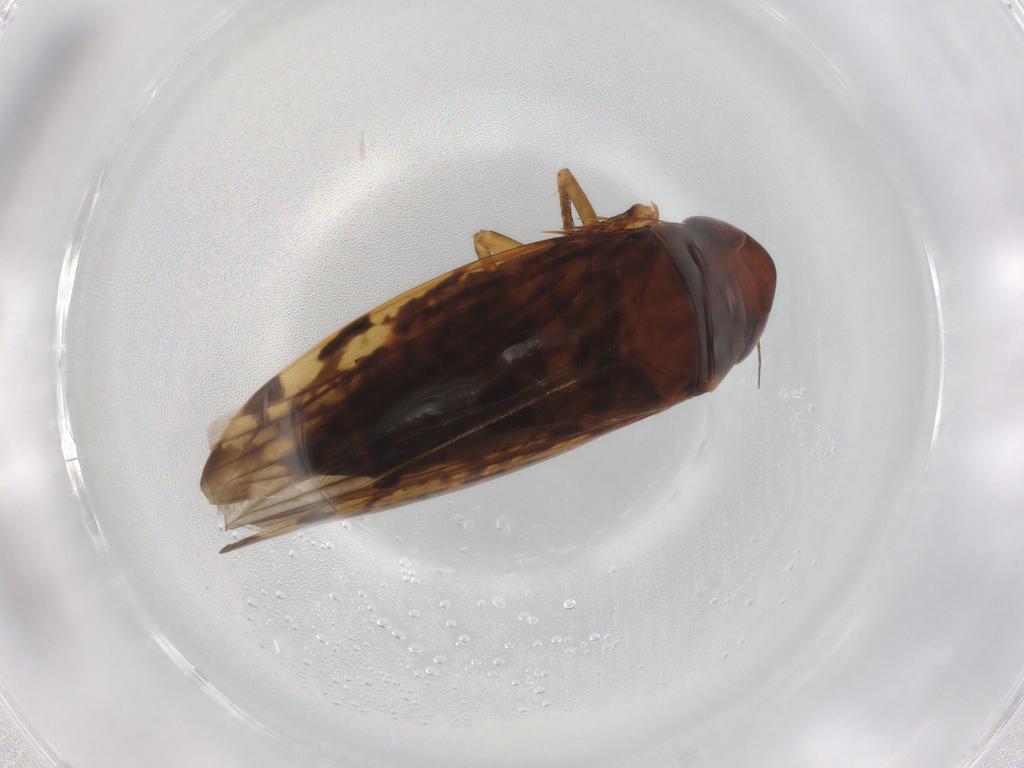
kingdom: Animalia
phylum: Arthropoda
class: Insecta
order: Hemiptera
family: Cicadellidae
